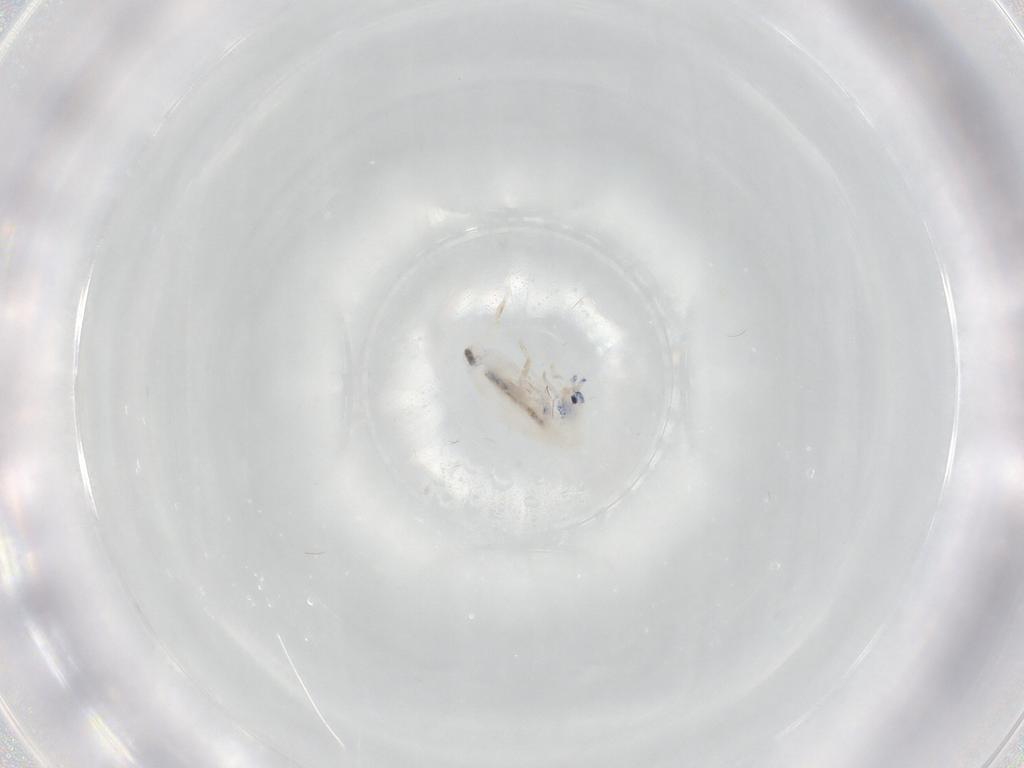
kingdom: Animalia
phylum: Arthropoda
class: Collembola
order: Entomobryomorpha
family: Entomobryidae
